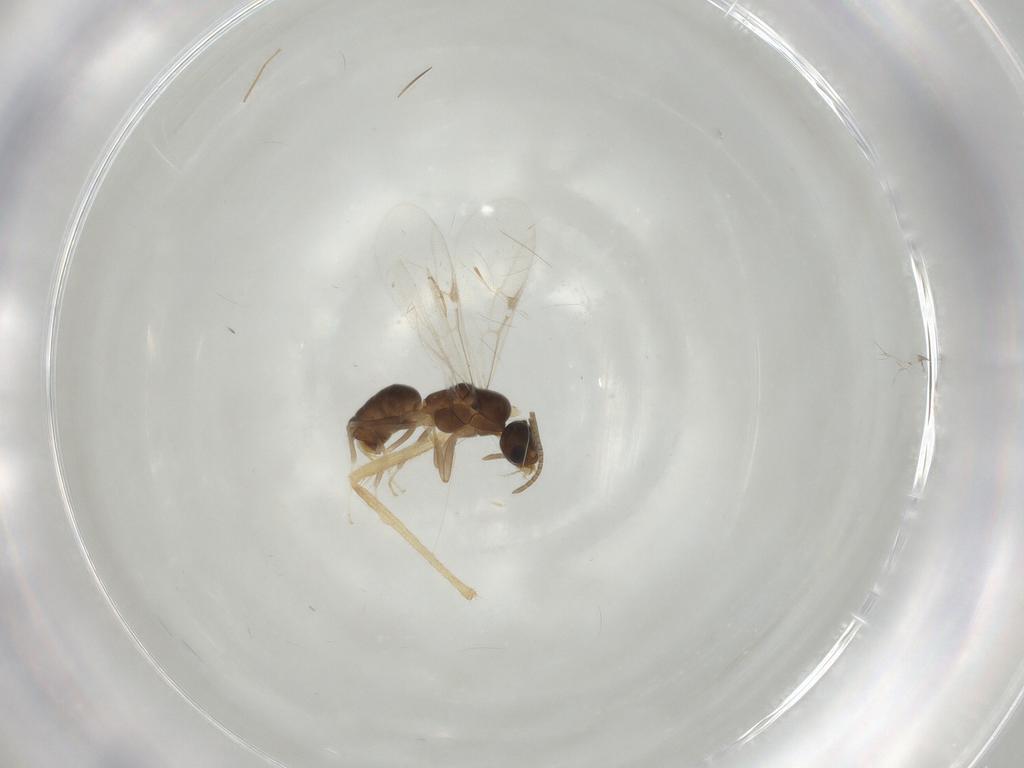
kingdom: Animalia
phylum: Arthropoda
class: Insecta
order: Hymenoptera
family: Formicidae
